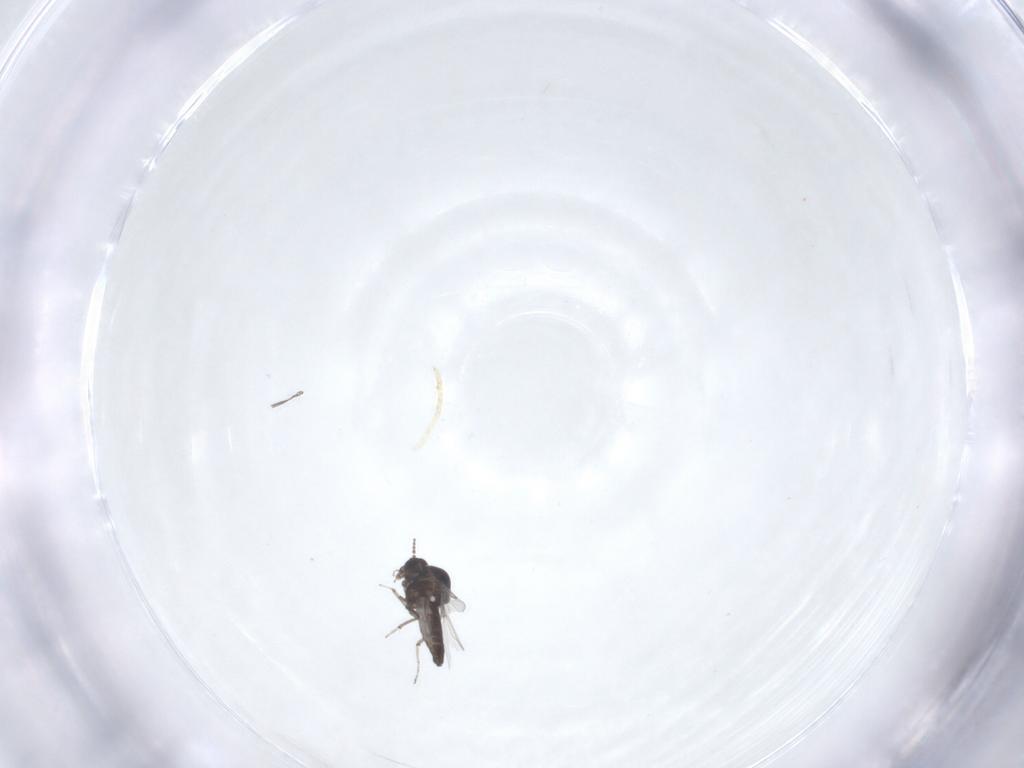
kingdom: Animalia
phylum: Arthropoda
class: Insecta
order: Diptera
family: Ceratopogonidae
